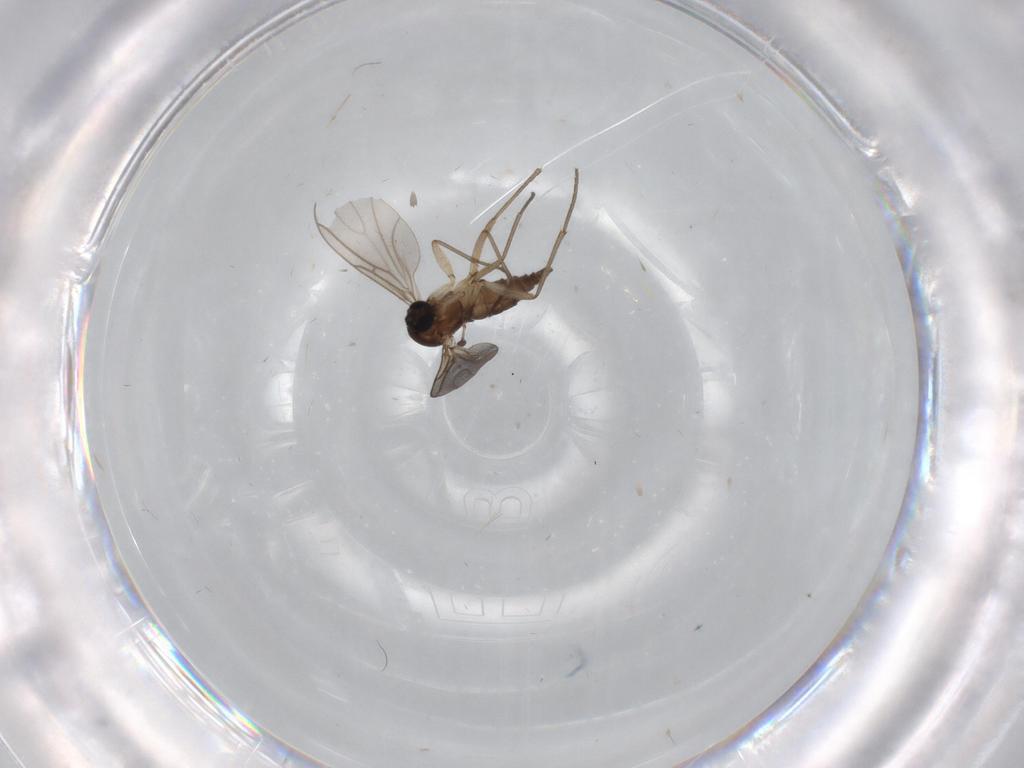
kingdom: Animalia
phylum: Arthropoda
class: Insecta
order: Diptera
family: Sciaridae
